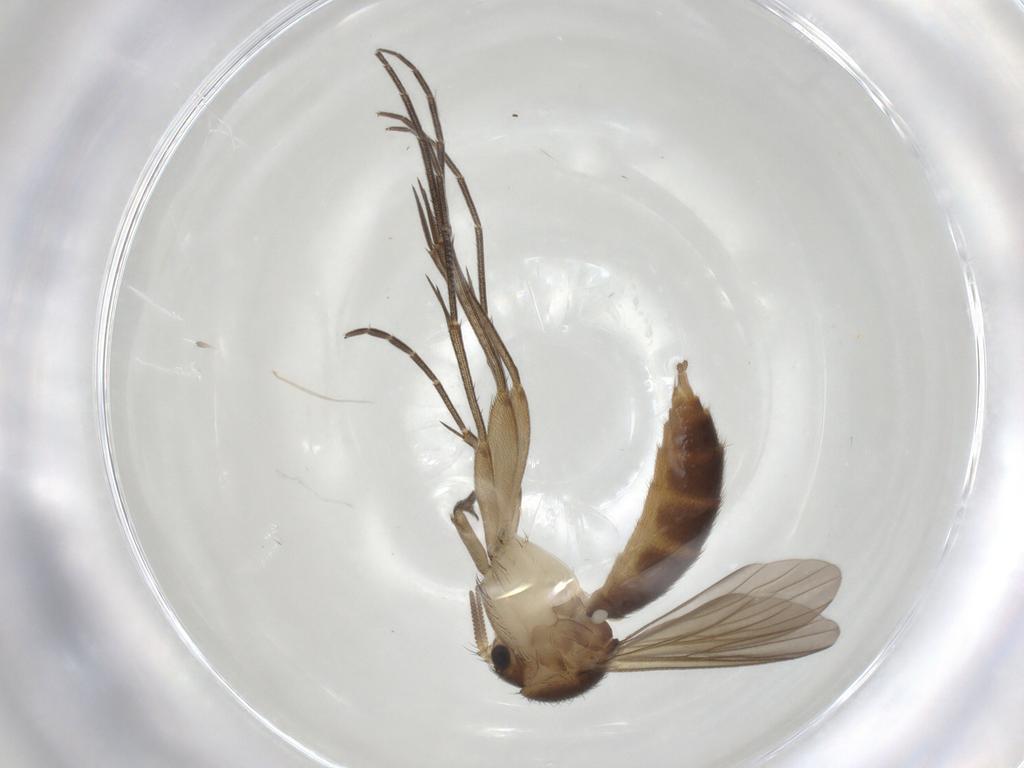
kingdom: Animalia
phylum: Arthropoda
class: Insecta
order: Diptera
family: Mycetophilidae
